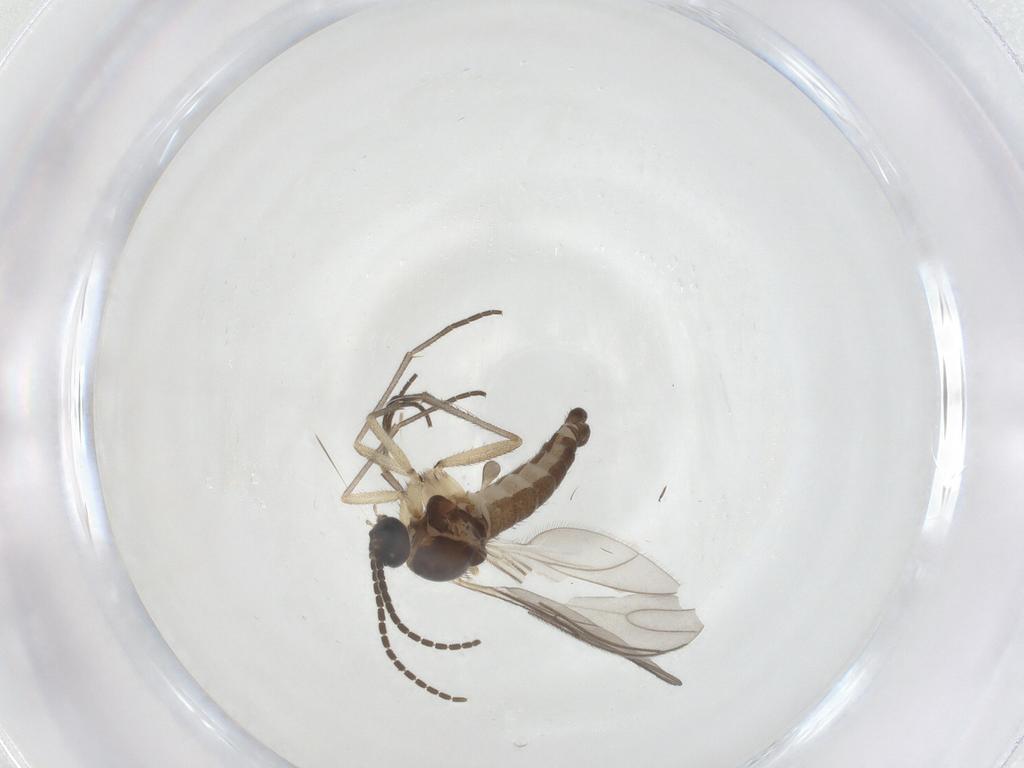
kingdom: Animalia
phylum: Arthropoda
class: Insecta
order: Diptera
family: Sciaridae
